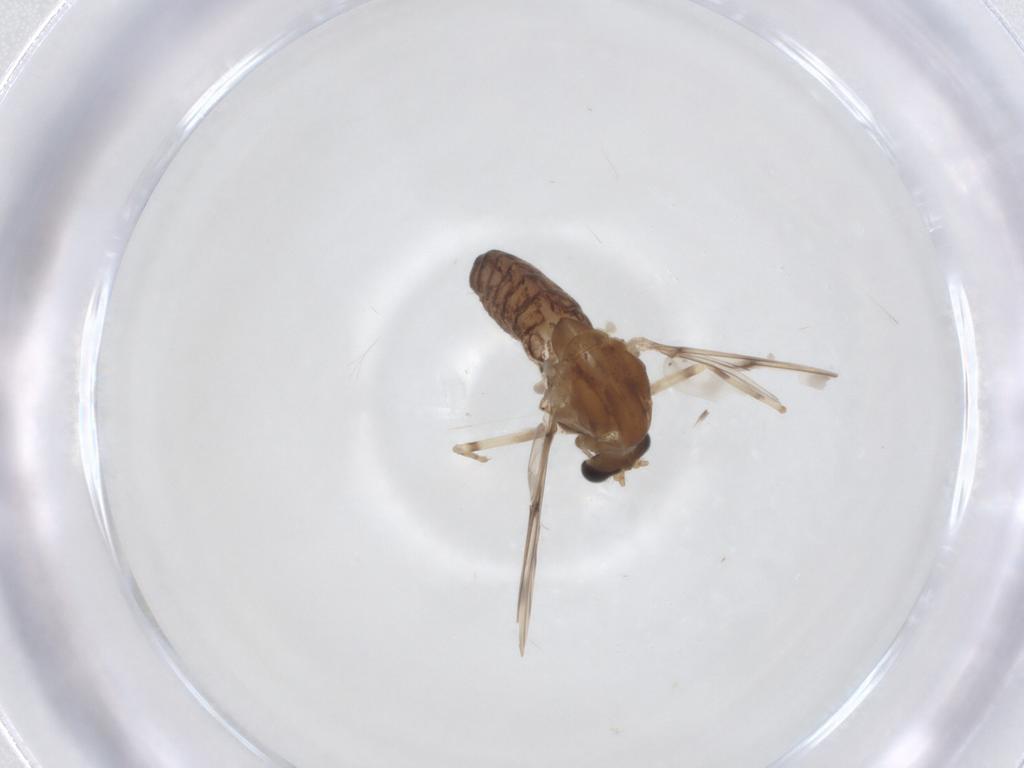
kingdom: Animalia
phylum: Arthropoda
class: Insecta
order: Diptera
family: Chironomidae
